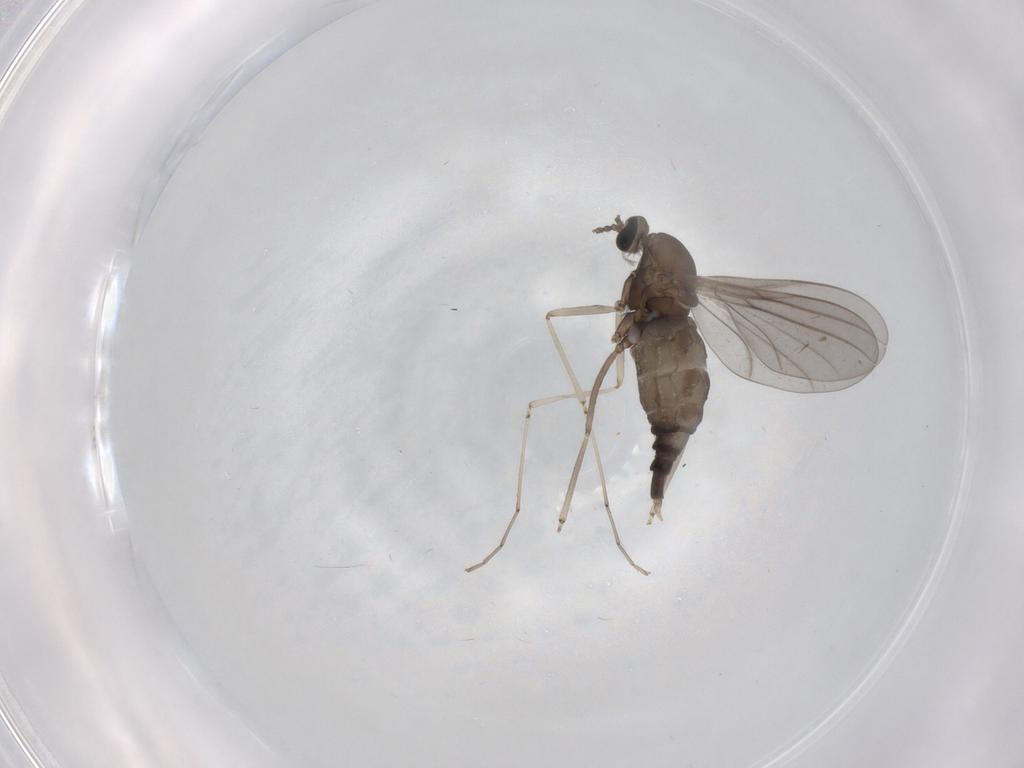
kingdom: Animalia
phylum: Arthropoda
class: Insecta
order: Diptera
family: Cecidomyiidae
